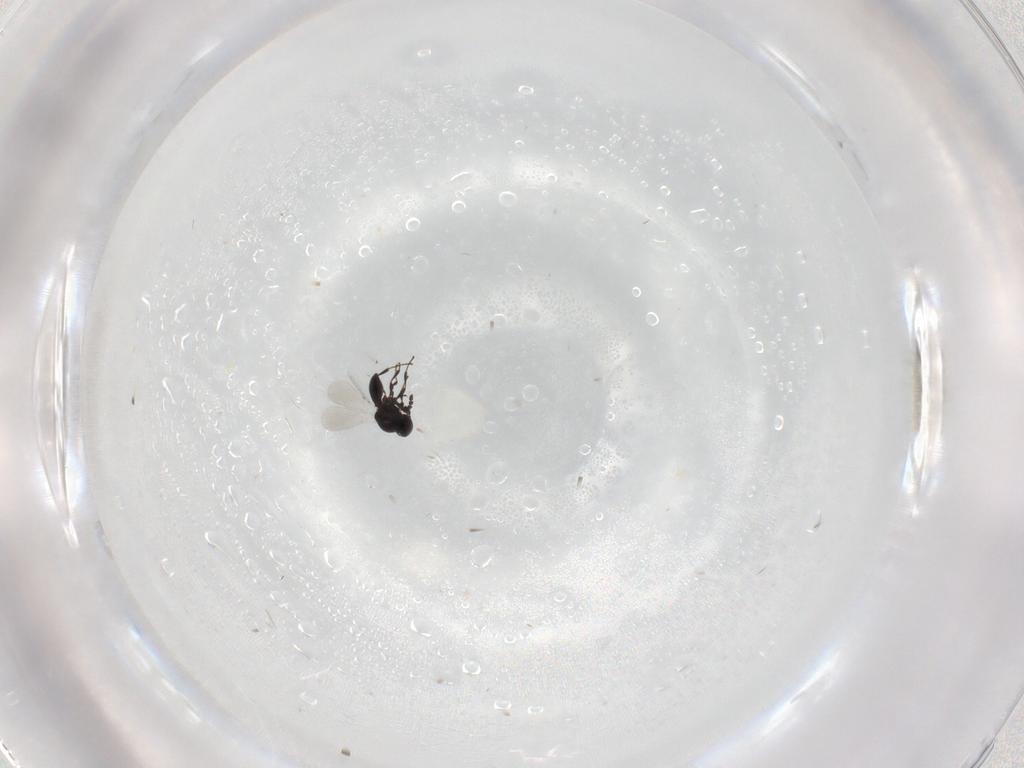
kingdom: Animalia
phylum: Arthropoda
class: Insecta
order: Hymenoptera
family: Platygastridae
